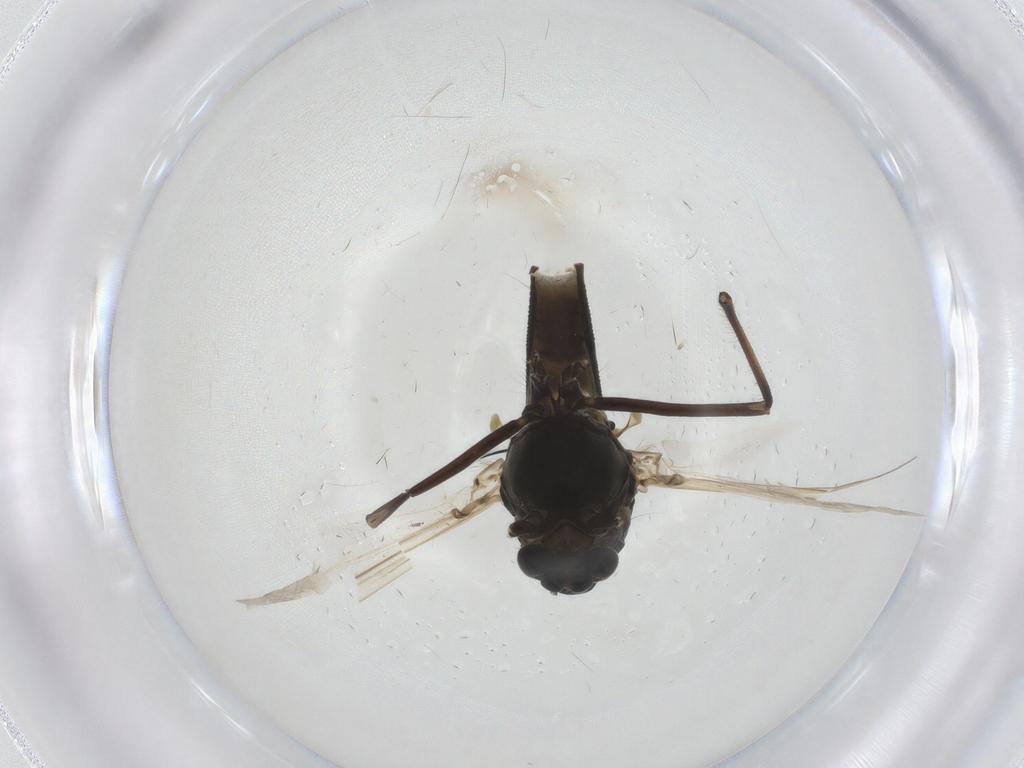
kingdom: Animalia
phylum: Arthropoda
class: Insecta
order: Diptera
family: Chironomidae
